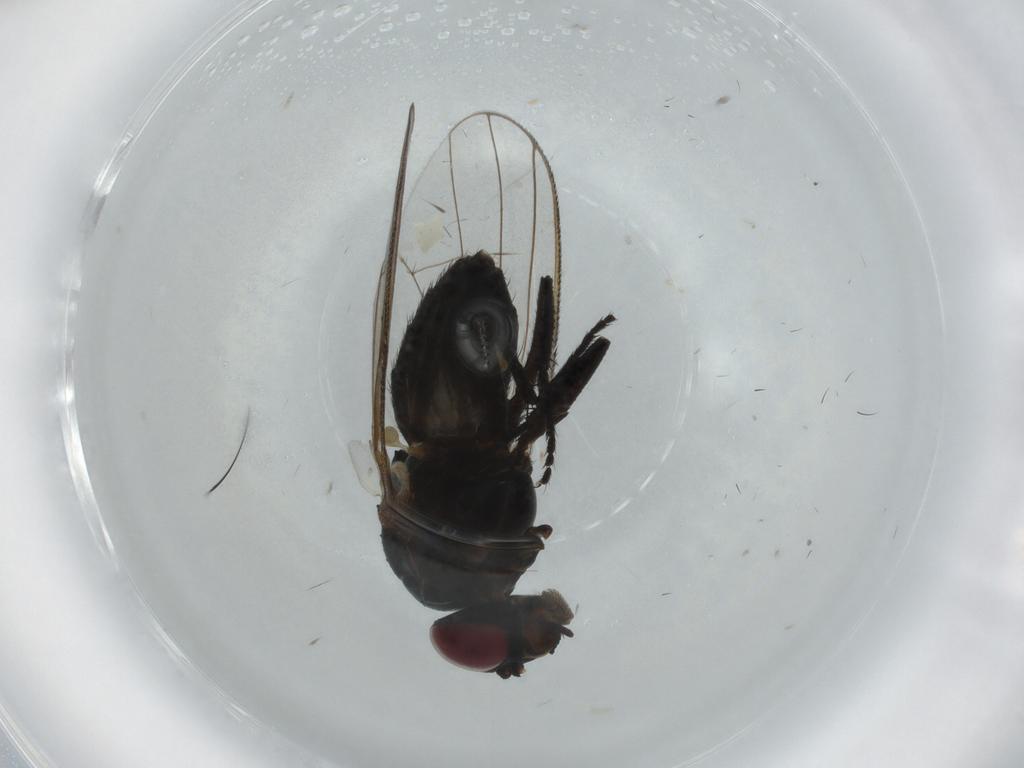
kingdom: Animalia
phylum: Arthropoda
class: Insecta
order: Diptera
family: Fannia
